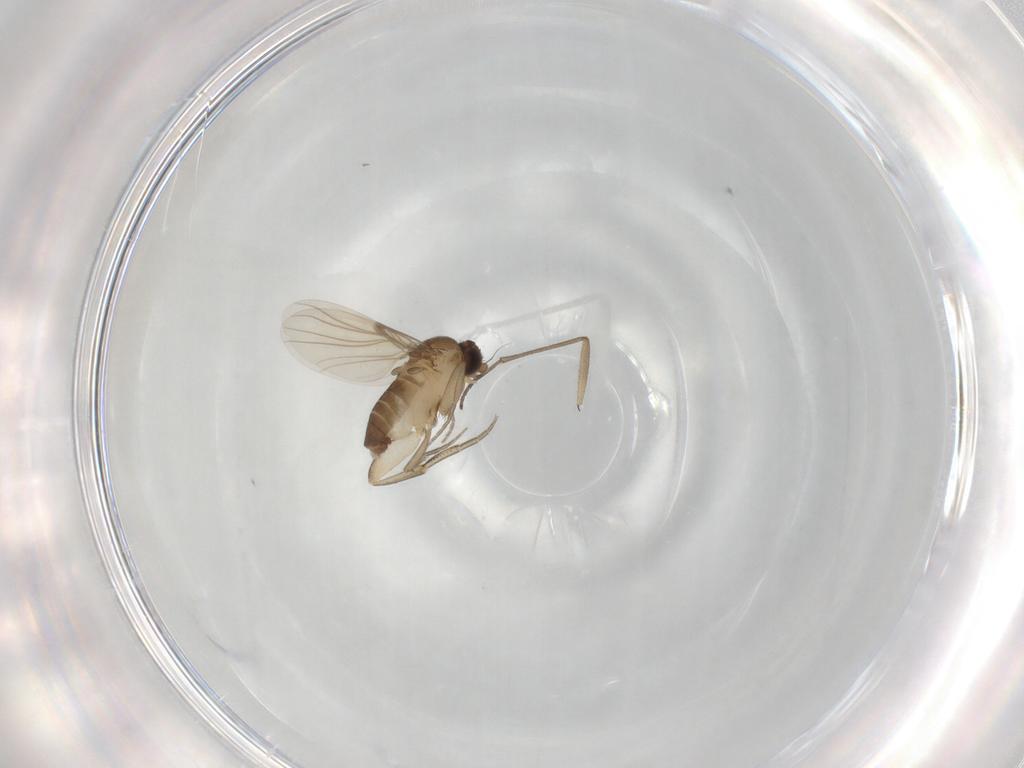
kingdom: Animalia
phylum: Arthropoda
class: Insecta
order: Diptera
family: Phoridae
